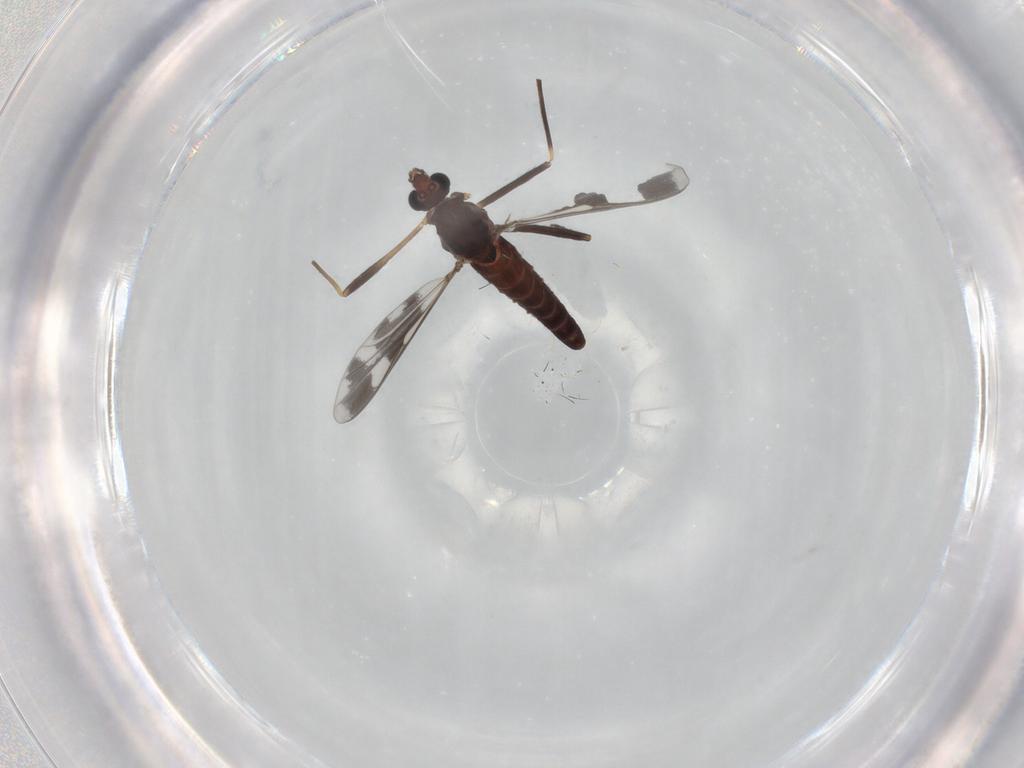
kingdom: Animalia
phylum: Arthropoda
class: Insecta
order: Diptera
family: Chironomidae
